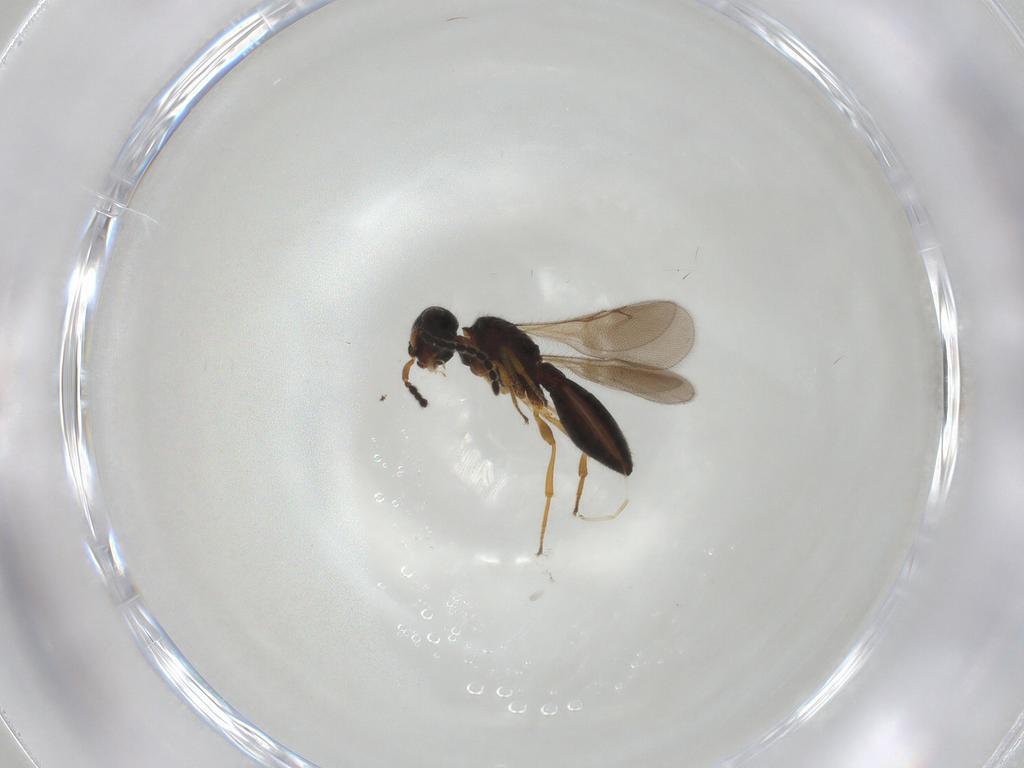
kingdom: Animalia
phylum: Arthropoda
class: Insecta
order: Hymenoptera
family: Scelionidae
